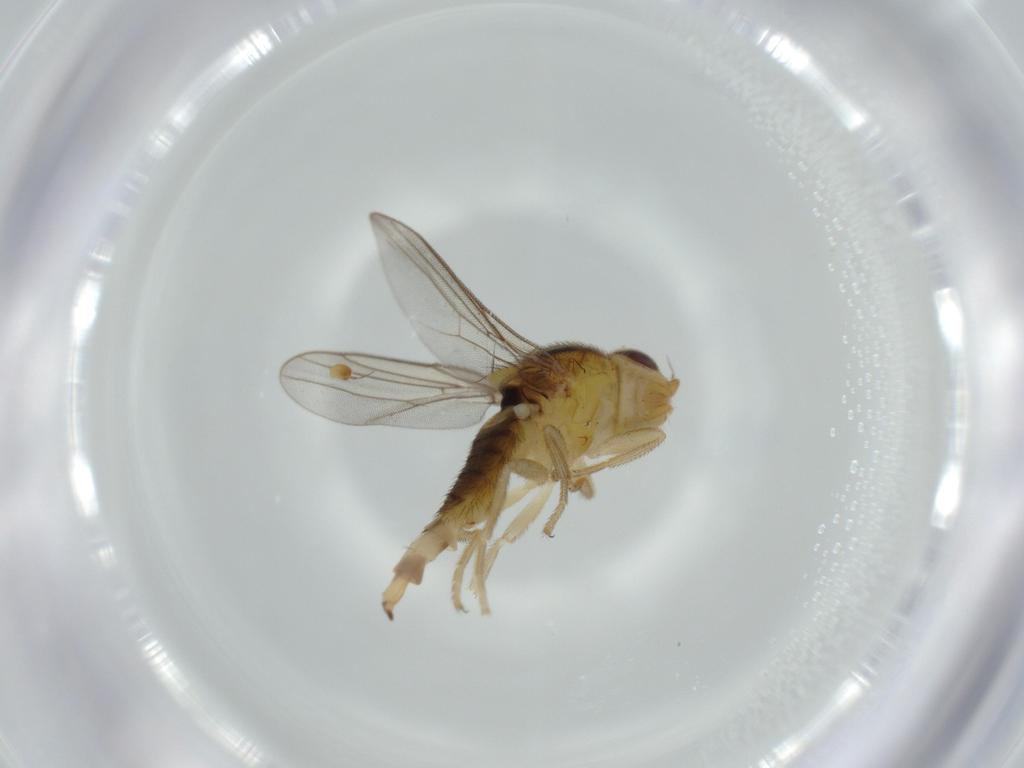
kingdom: Animalia
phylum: Arthropoda
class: Insecta
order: Diptera
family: Chloropidae
